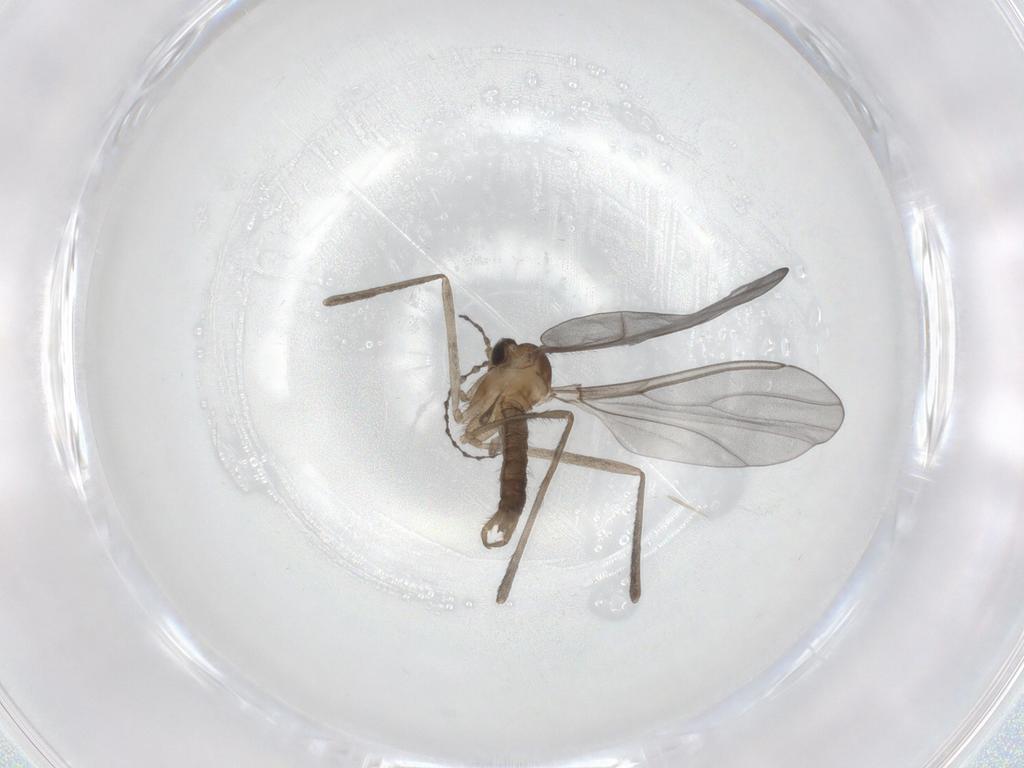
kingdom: Animalia
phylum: Arthropoda
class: Insecta
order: Diptera
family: Cecidomyiidae
